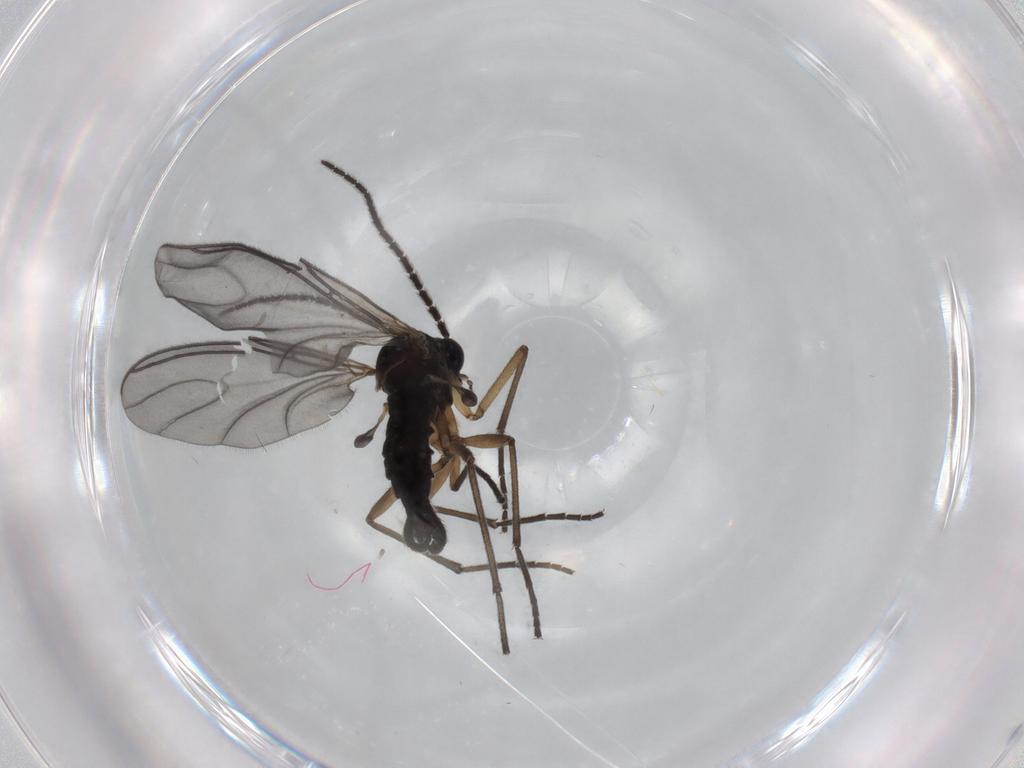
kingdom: Animalia
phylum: Arthropoda
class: Insecta
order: Diptera
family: Sciaridae
